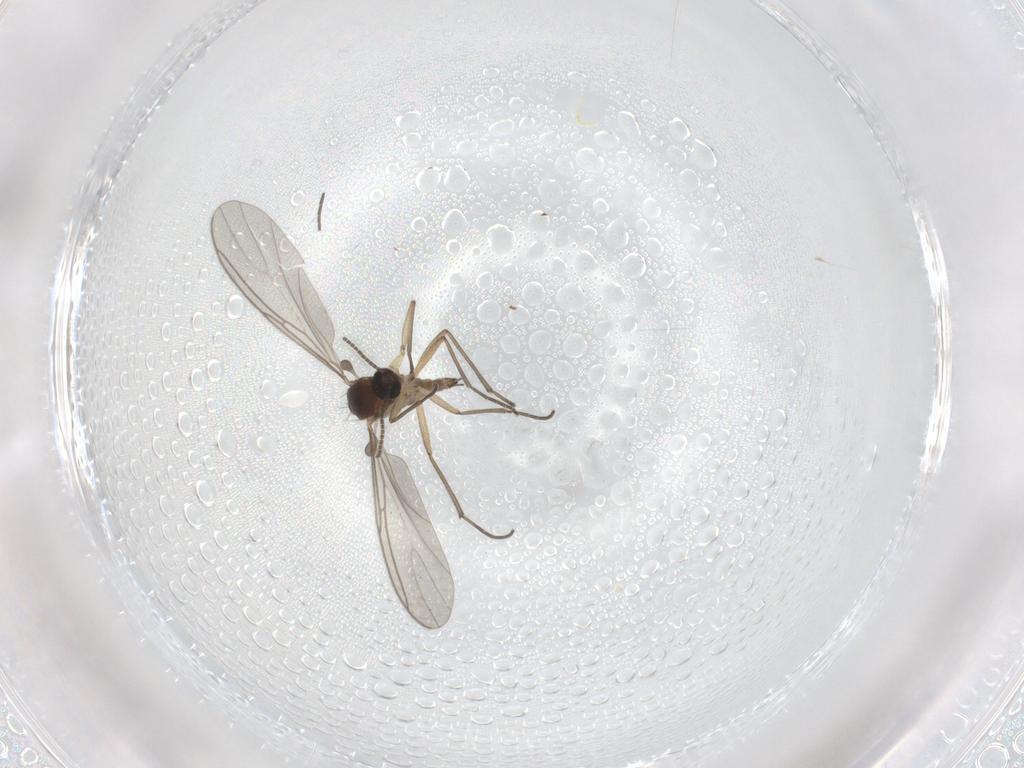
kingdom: Animalia
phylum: Arthropoda
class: Insecta
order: Diptera
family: Sciaridae
